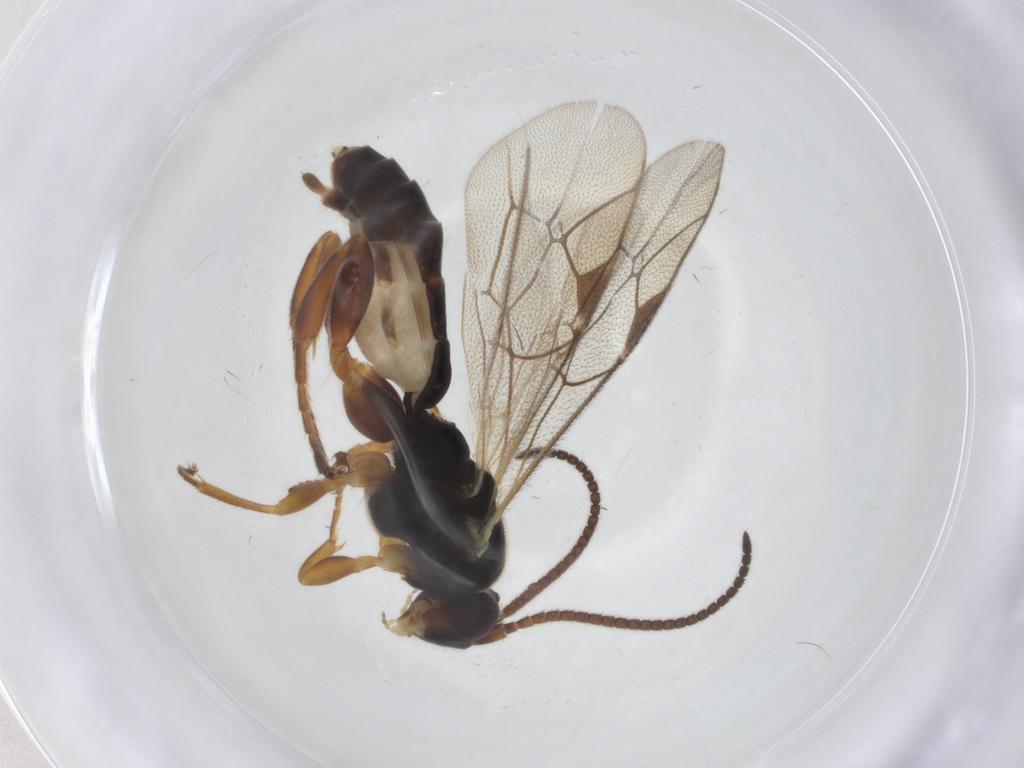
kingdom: Animalia
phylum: Arthropoda
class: Insecta
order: Hymenoptera
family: Ichneumonidae
